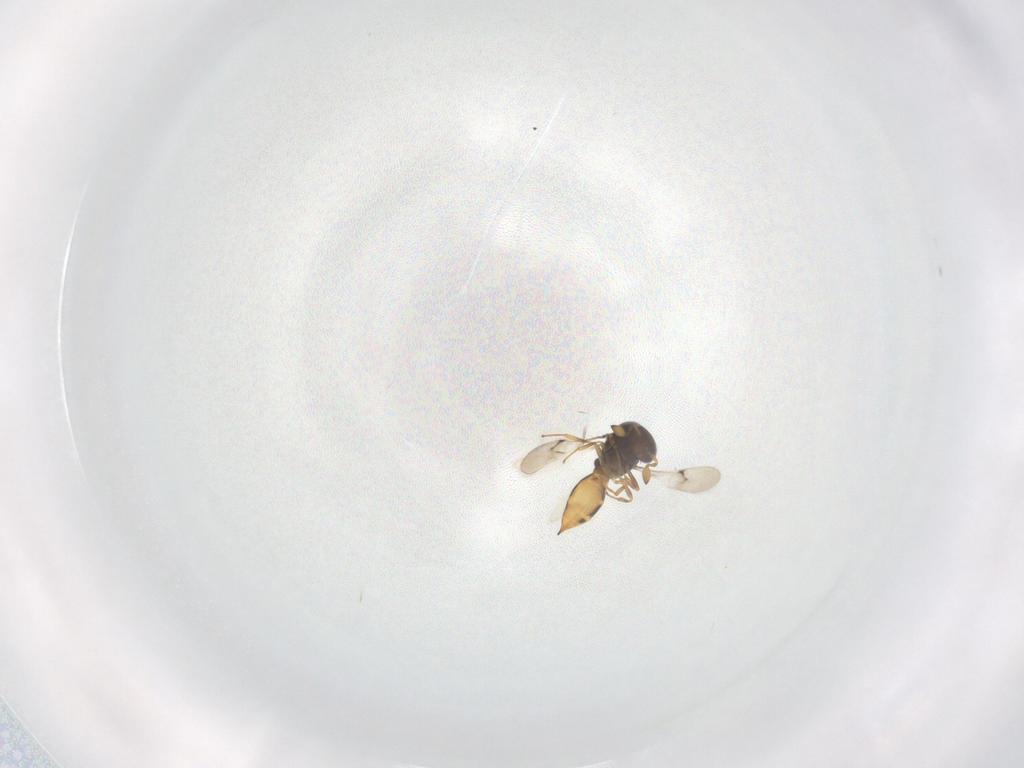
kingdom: Animalia
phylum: Arthropoda
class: Insecta
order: Hymenoptera
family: Scelionidae
